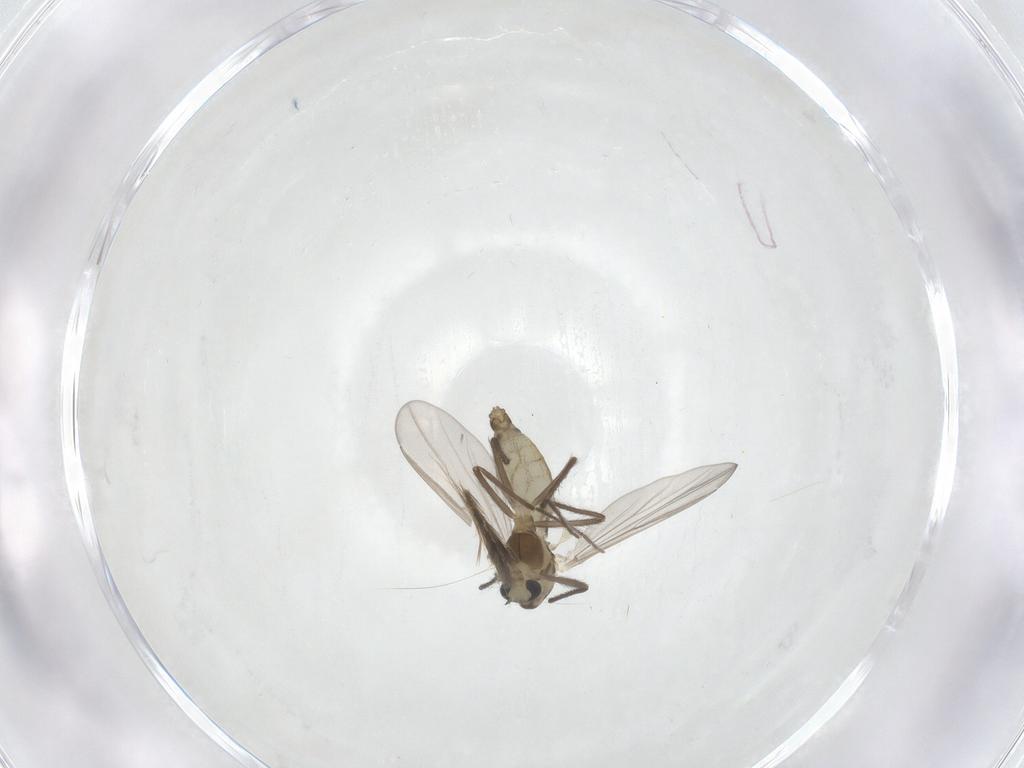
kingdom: Animalia
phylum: Arthropoda
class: Insecta
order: Diptera
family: Chironomidae
